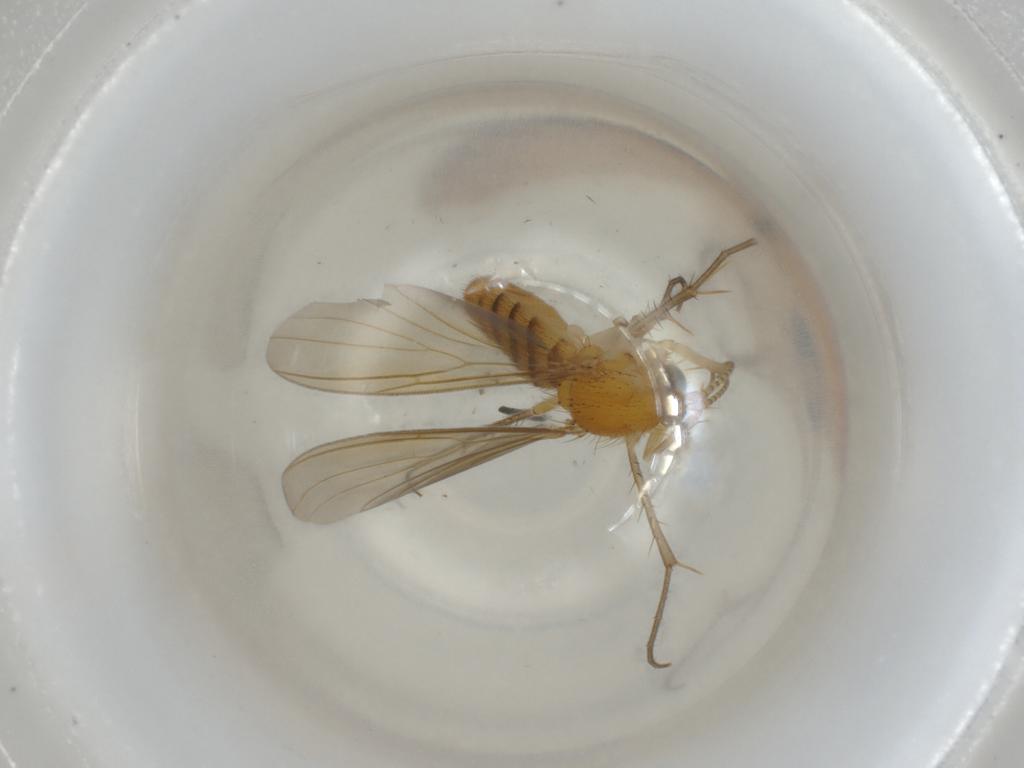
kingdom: Animalia
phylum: Arthropoda
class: Insecta
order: Diptera
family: Mycetophilidae
